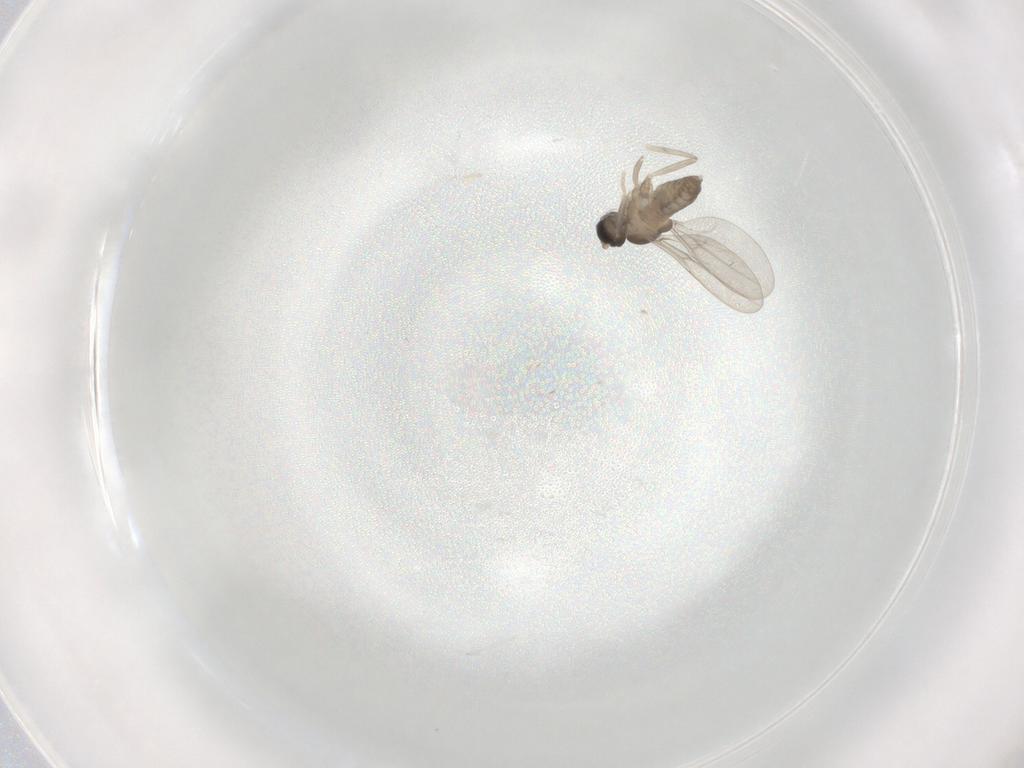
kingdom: Animalia
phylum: Arthropoda
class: Insecta
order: Diptera
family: Cecidomyiidae
